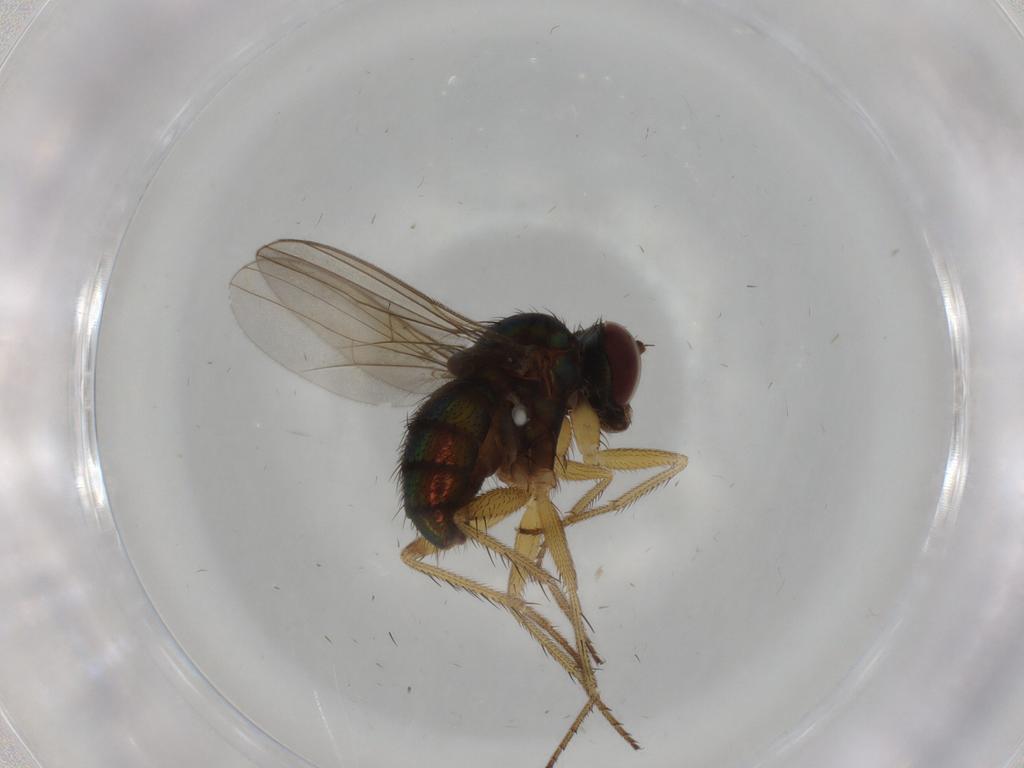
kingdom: Animalia
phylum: Arthropoda
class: Insecta
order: Diptera
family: Dolichopodidae
